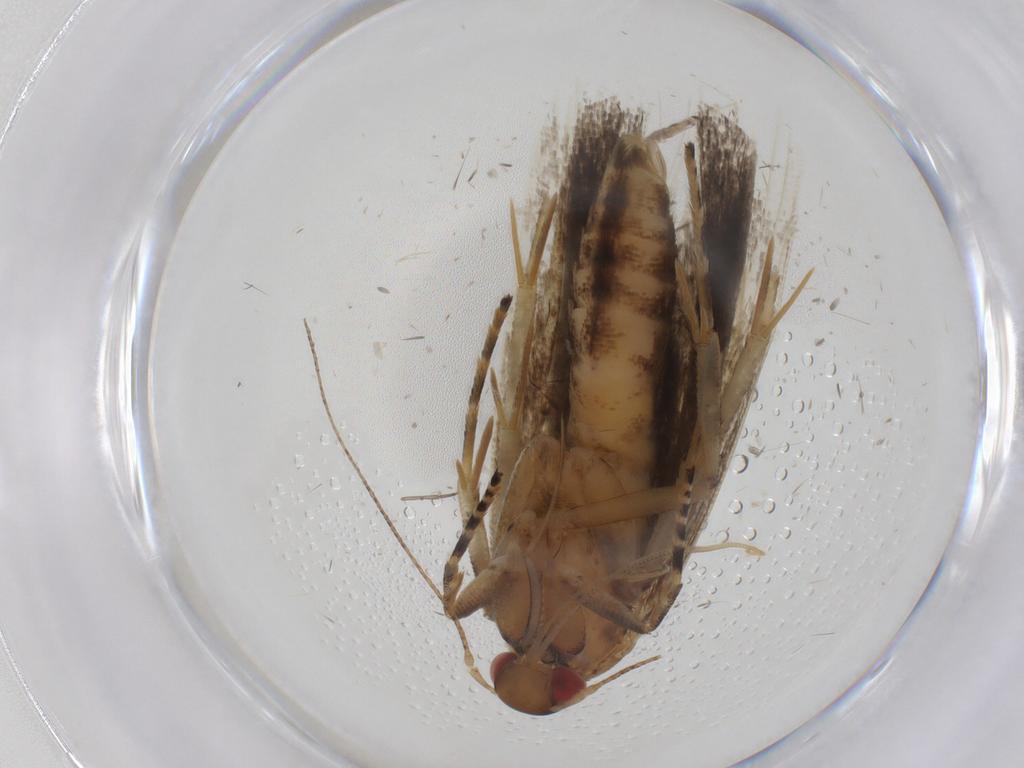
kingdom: Animalia
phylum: Arthropoda
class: Insecta
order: Lepidoptera
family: Gelechiidae
